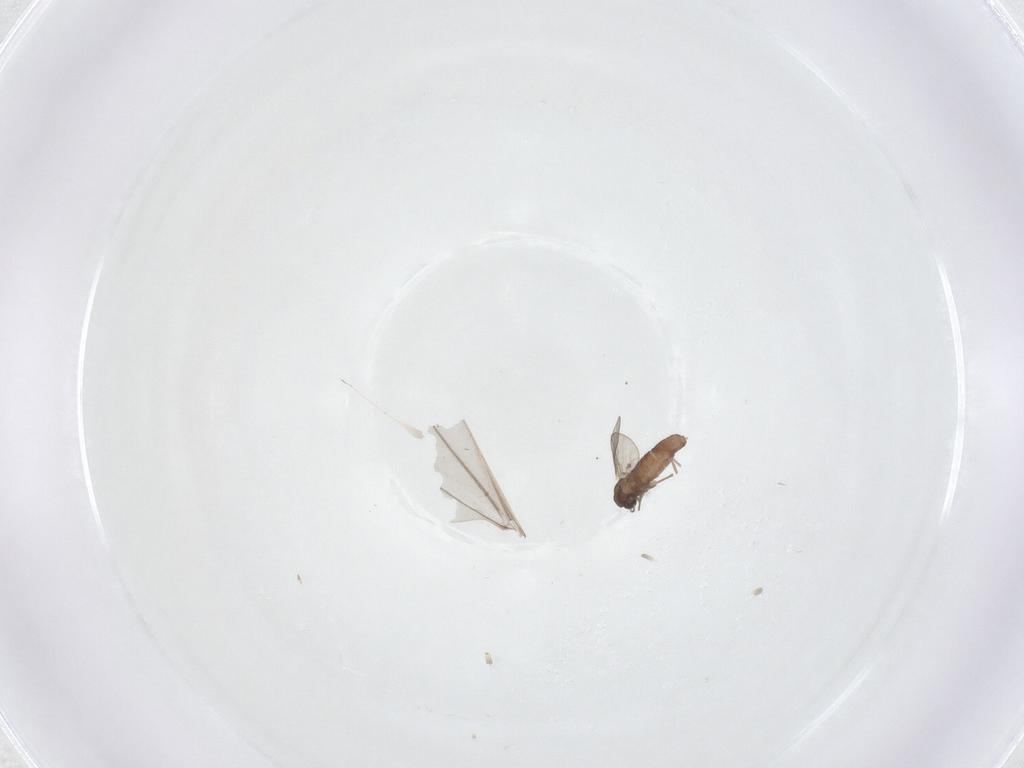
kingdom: Animalia
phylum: Arthropoda
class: Insecta
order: Diptera
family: Chironomidae
